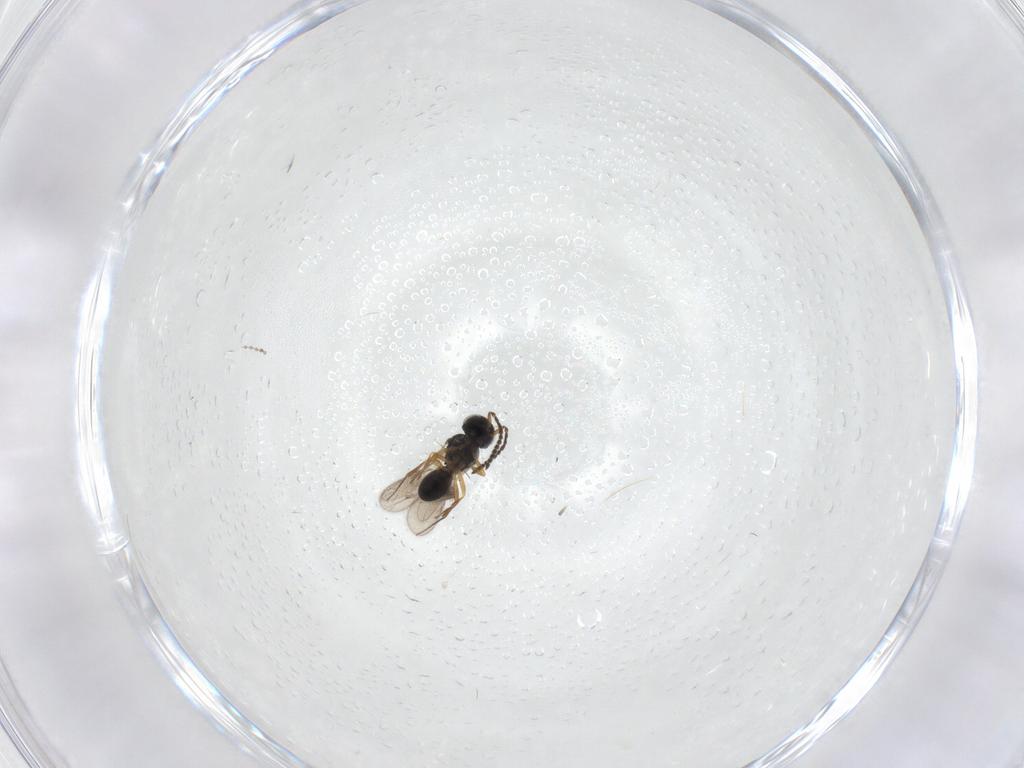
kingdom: Animalia
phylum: Arthropoda
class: Insecta
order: Hymenoptera
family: Scelionidae
